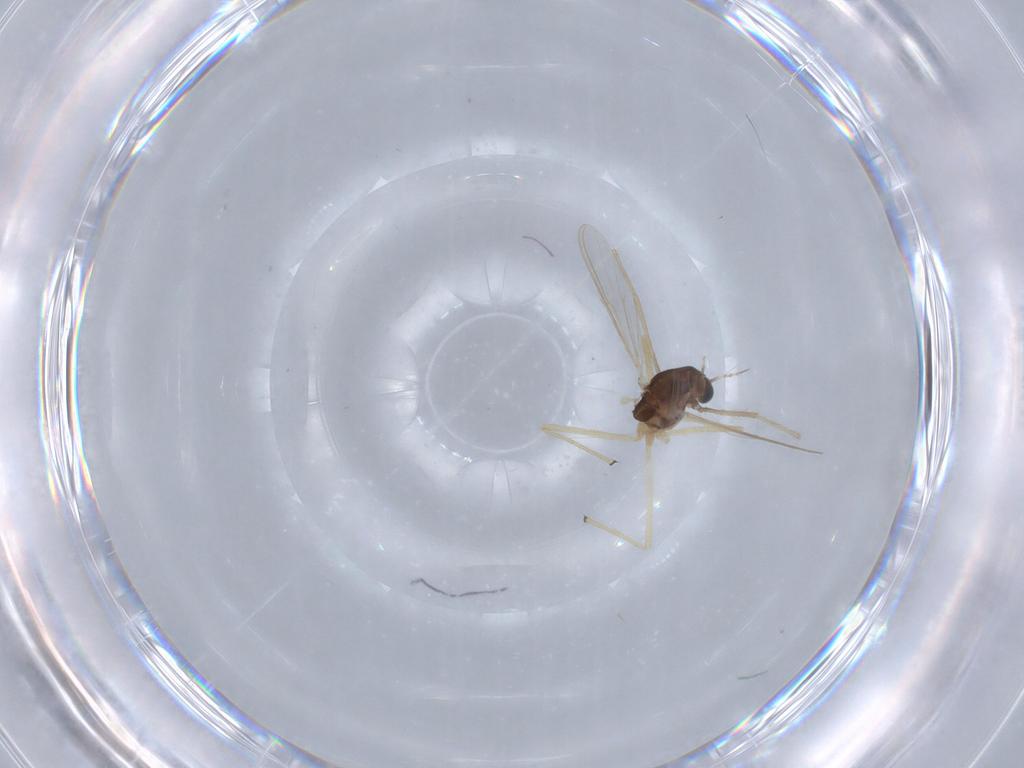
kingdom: Animalia
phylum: Arthropoda
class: Insecta
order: Diptera
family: Chironomidae
